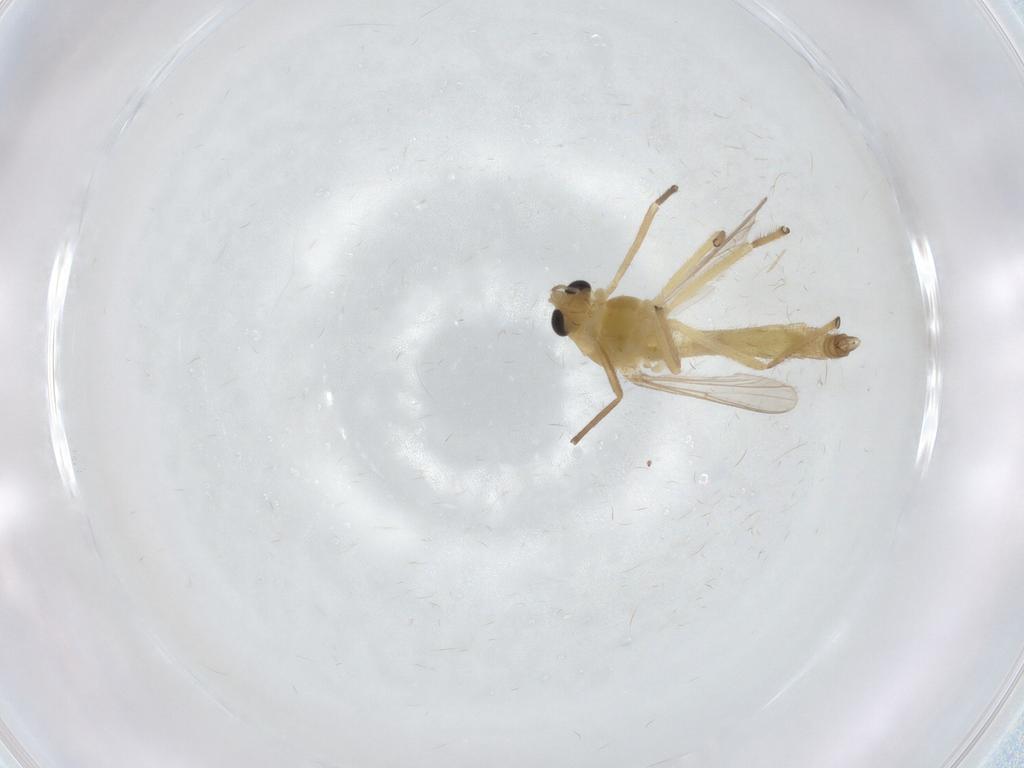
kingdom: Animalia
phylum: Arthropoda
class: Insecta
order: Diptera
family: Chironomidae
